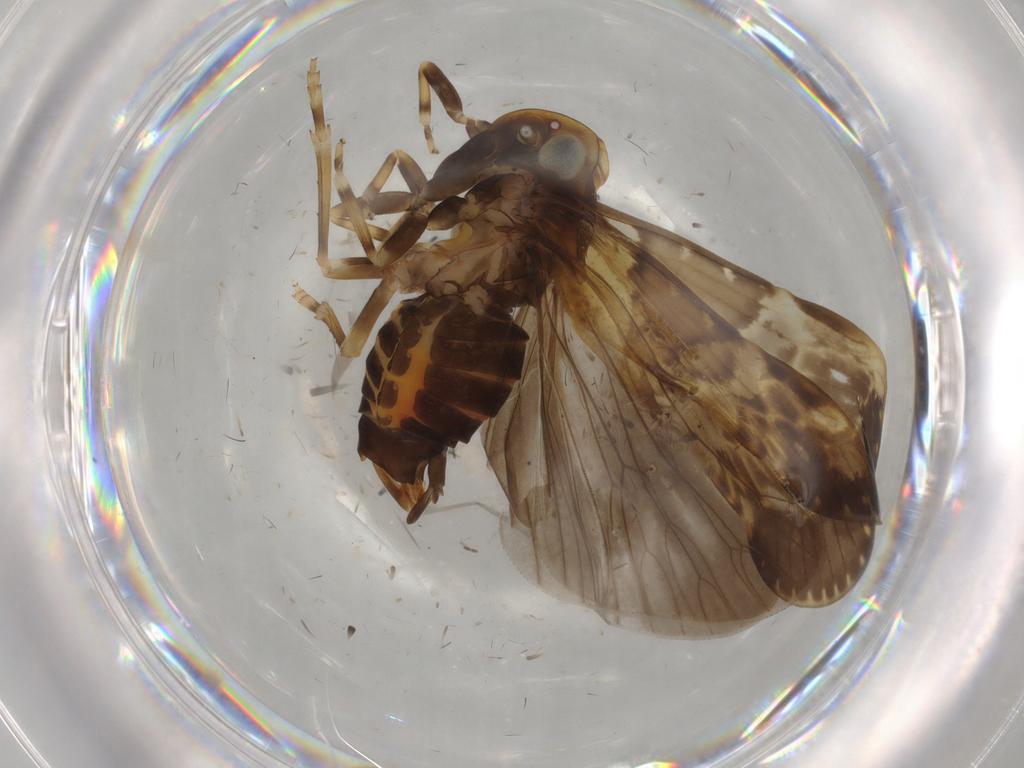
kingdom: Animalia
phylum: Arthropoda
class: Insecta
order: Hemiptera
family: Cixiidae
